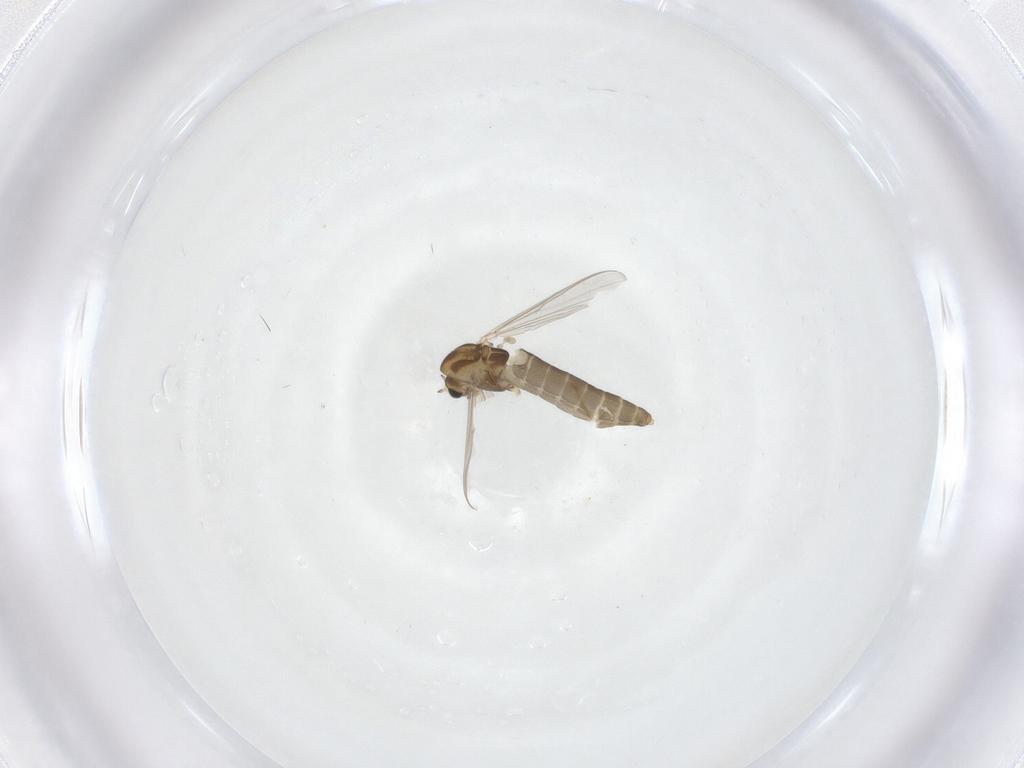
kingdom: Animalia
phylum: Arthropoda
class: Insecta
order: Diptera
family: Chironomidae
